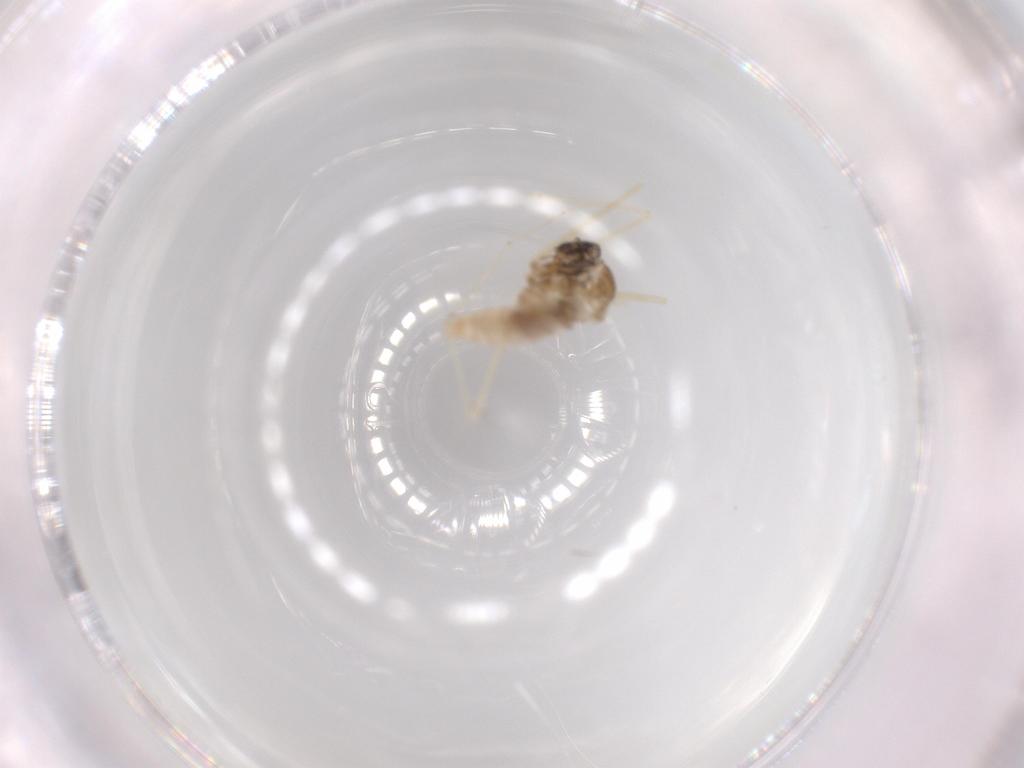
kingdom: Animalia
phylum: Arthropoda
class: Insecta
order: Diptera
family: Cecidomyiidae
